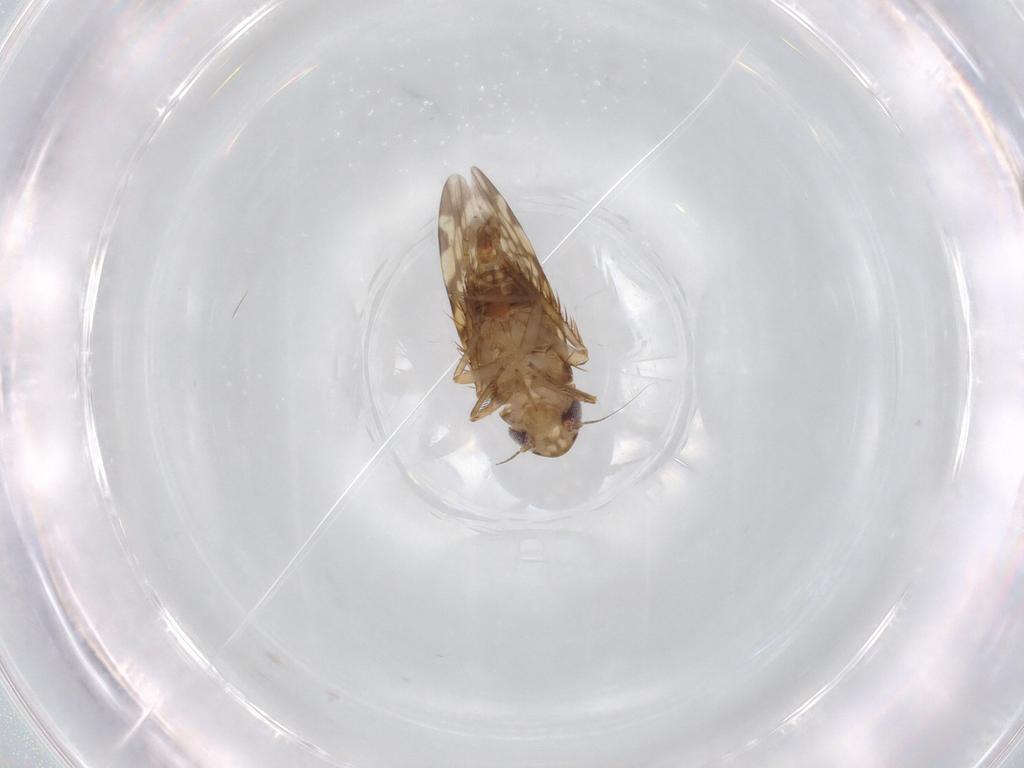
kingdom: Animalia
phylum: Arthropoda
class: Insecta
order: Hemiptera
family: Cicadellidae
